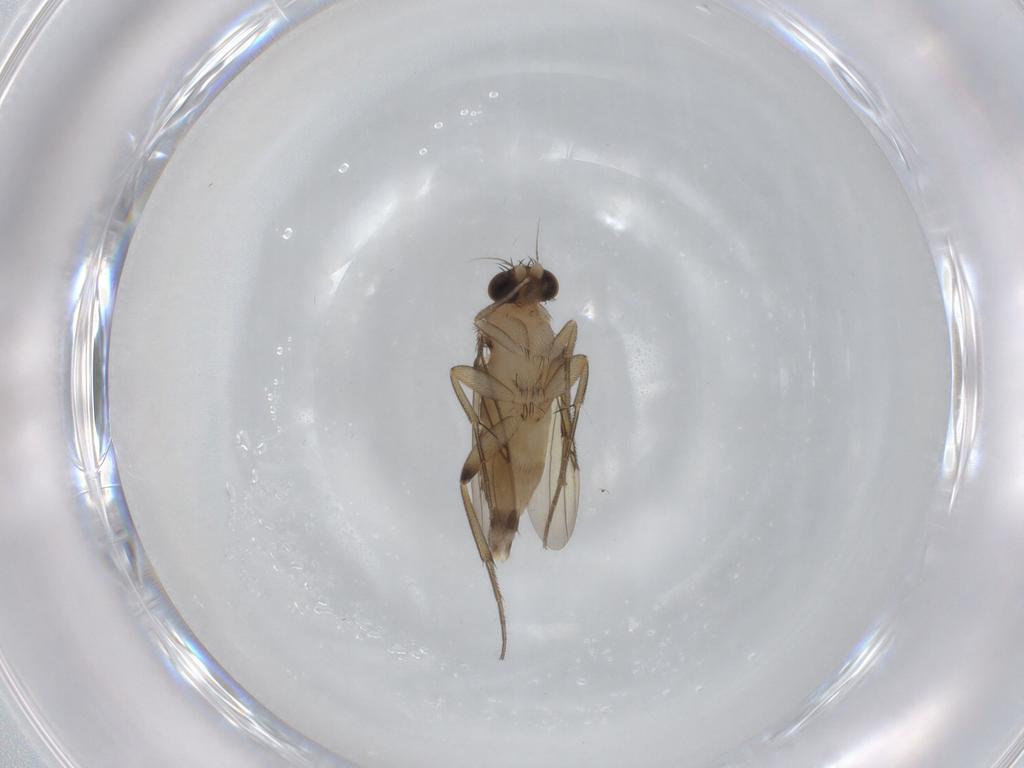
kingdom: Animalia
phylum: Arthropoda
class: Insecta
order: Diptera
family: Phoridae
